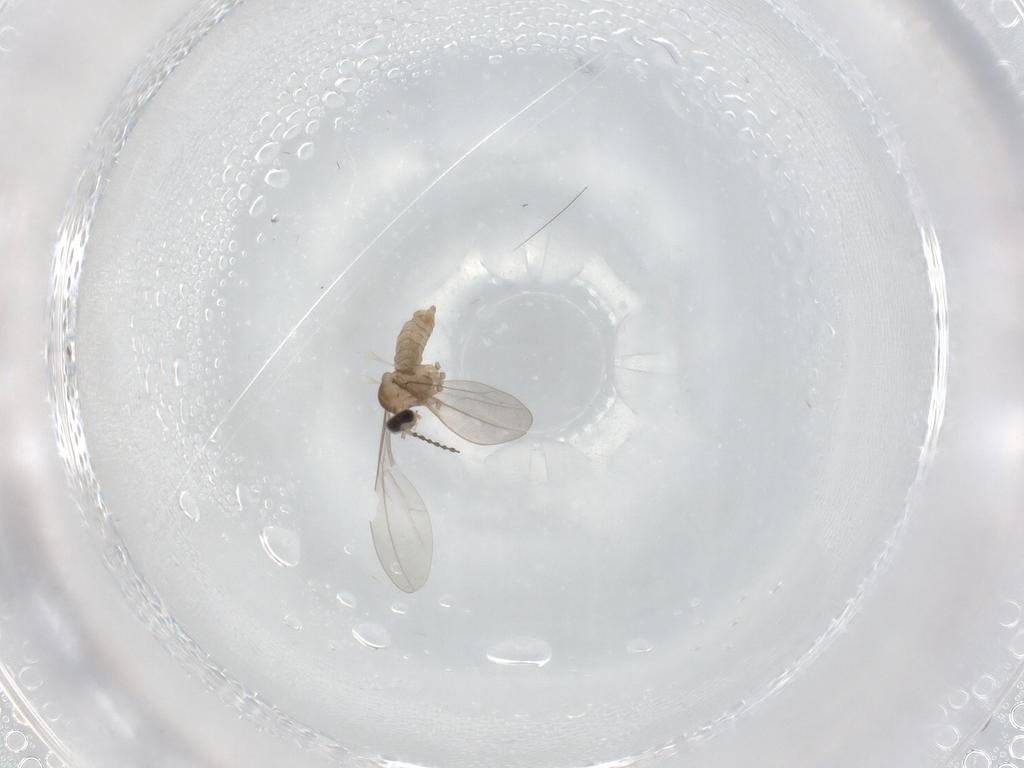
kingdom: Animalia
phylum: Arthropoda
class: Insecta
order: Diptera
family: Cecidomyiidae
